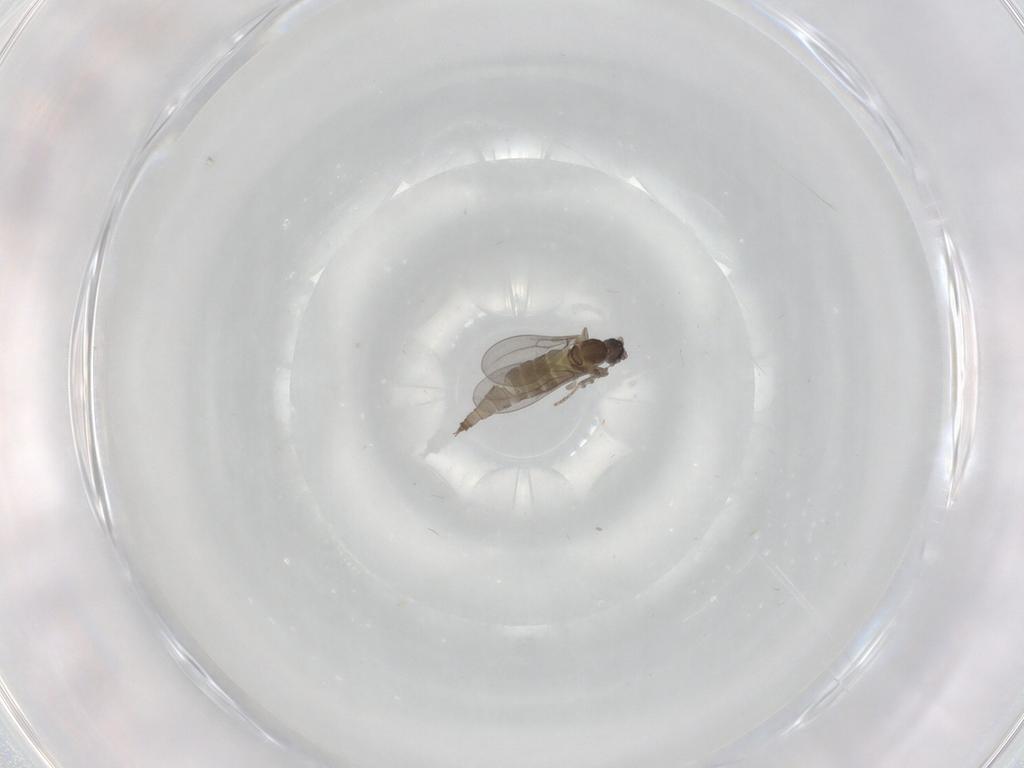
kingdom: Animalia
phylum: Arthropoda
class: Insecta
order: Diptera
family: Cecidomyiidae
